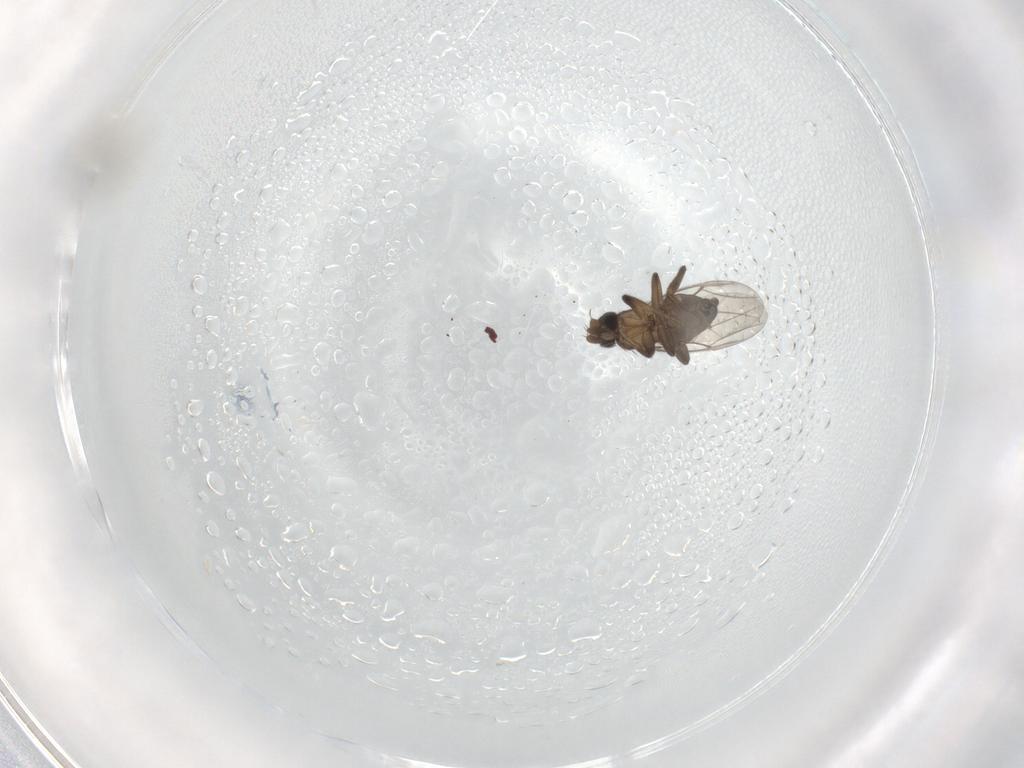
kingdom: Animalia
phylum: Arthropoda
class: Insecta
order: Diptera
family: Cecidomyiidae
